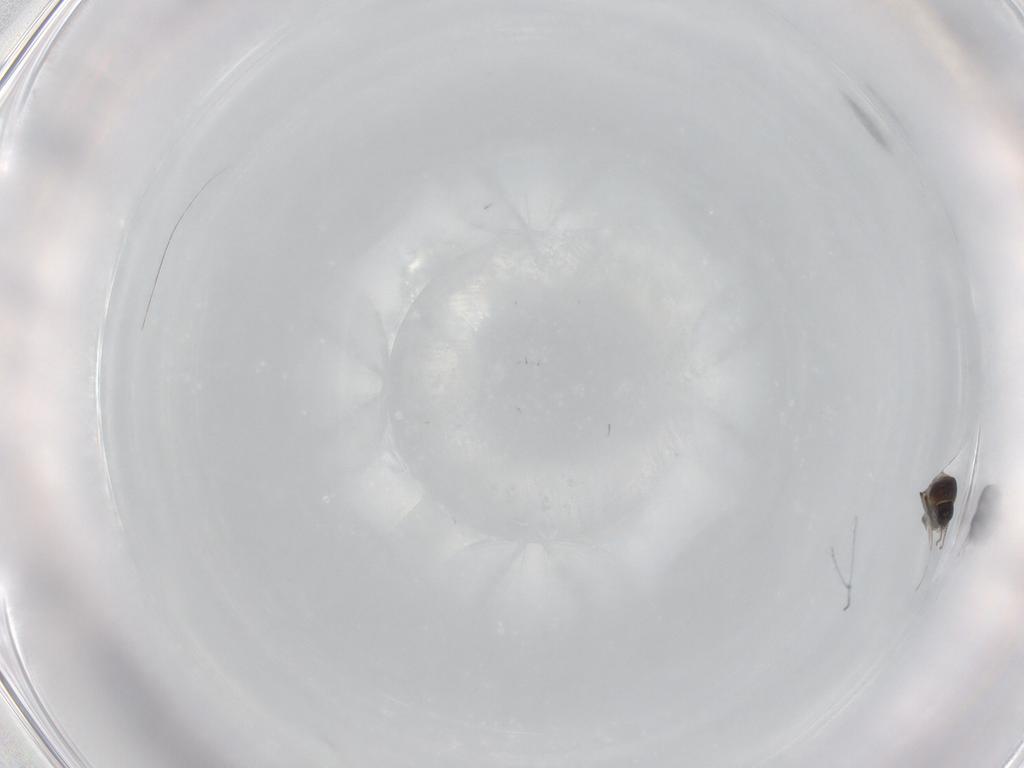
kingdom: Animalia
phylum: Arthropoda
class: Insecta
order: Diptera
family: Ceratopogonidae
